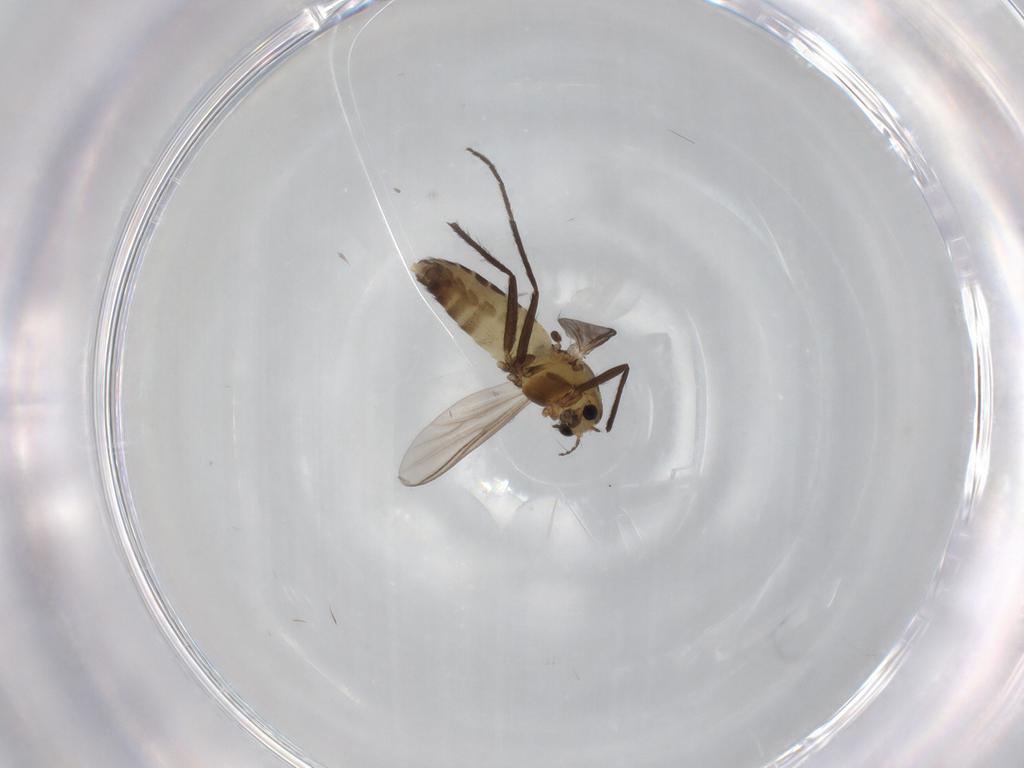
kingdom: Animalia
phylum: Arthropoda
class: Insecta
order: Diptera
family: Chironomidae
